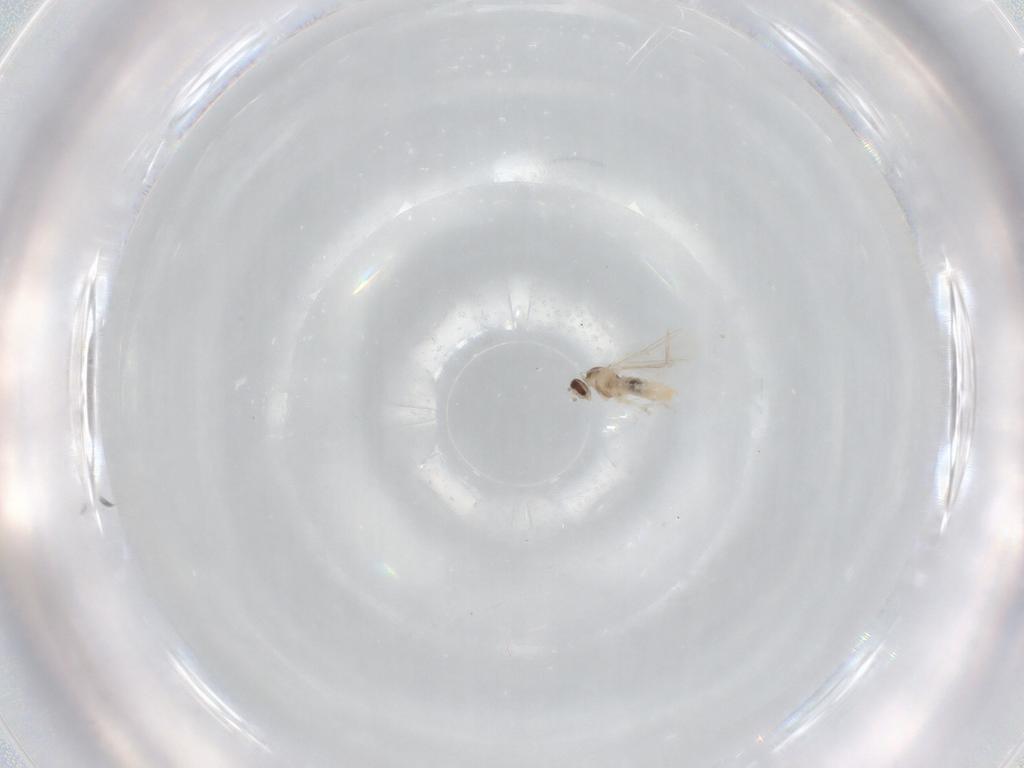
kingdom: Animalia
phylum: Arthropoda
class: Insecta
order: Diptera
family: Cecidomyiidae
